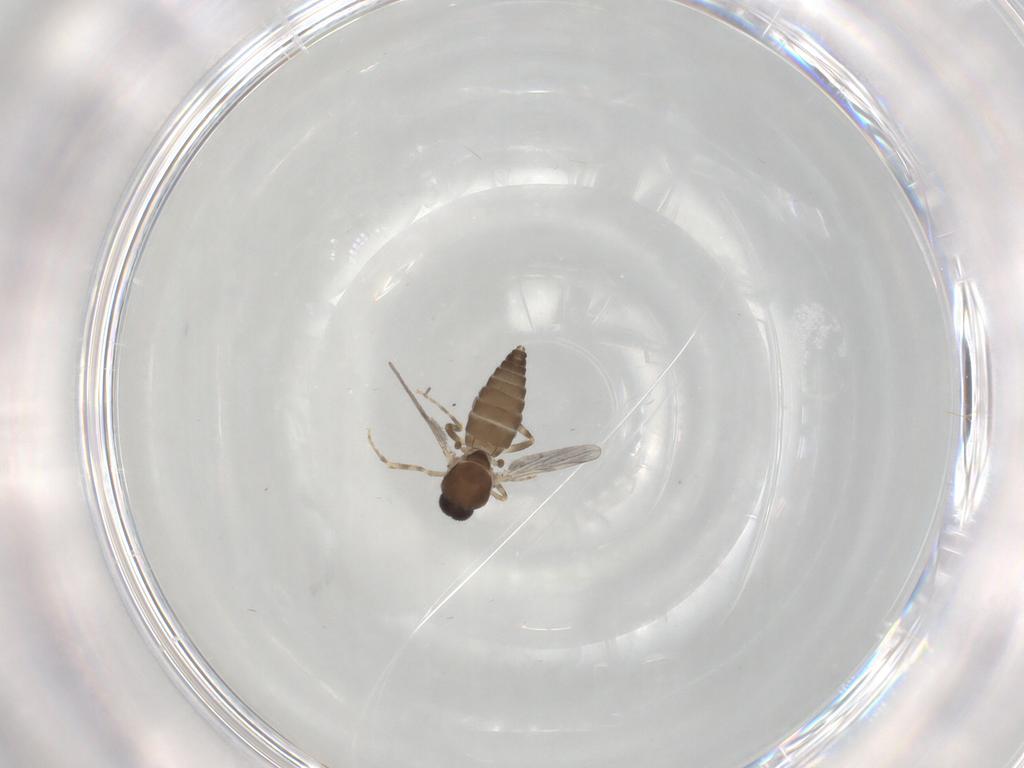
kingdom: Animalia
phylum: Arthropoda
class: Insecta
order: Diptera
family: Ceratopogonidae
